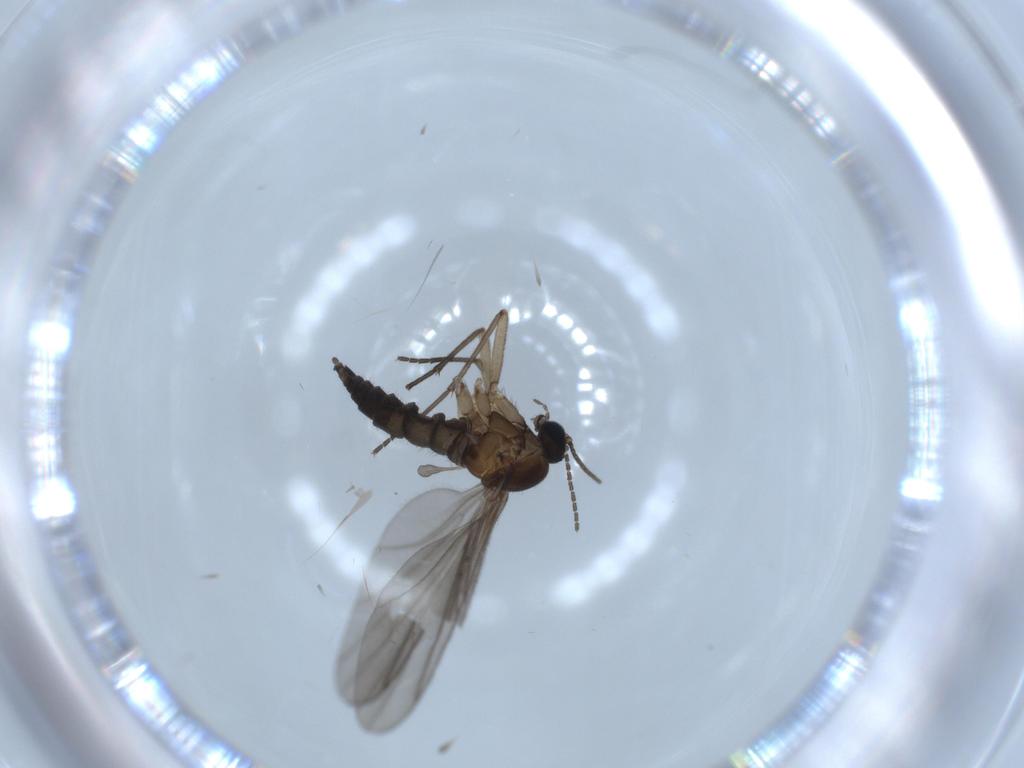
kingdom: Animalia
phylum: Arthropoda
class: Insecta
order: Diptera
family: Sciaridae
